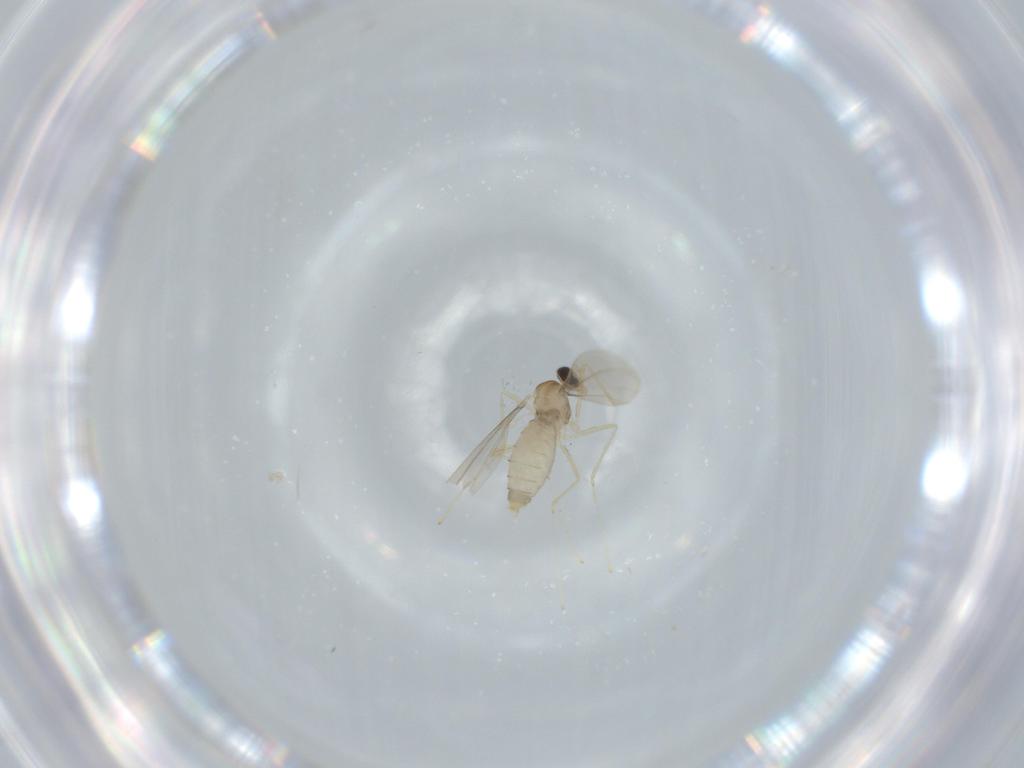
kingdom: Animalia
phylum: Arthropoda
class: Insecta
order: Diptera
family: Cecidomyiidae
